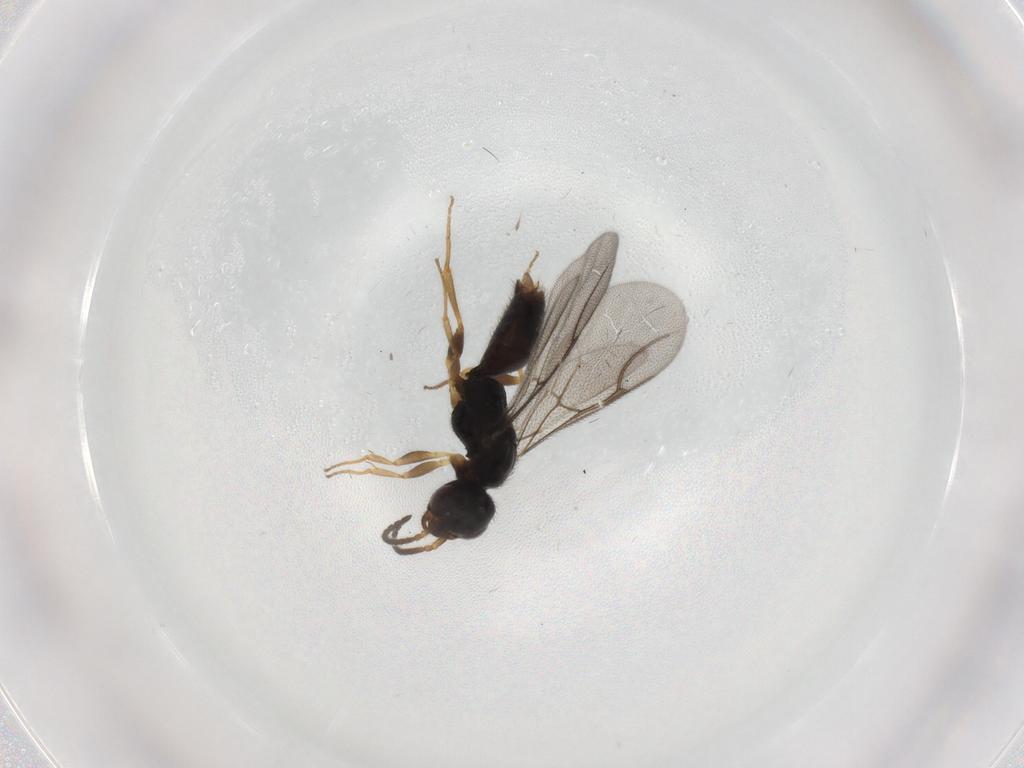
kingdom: Animalia
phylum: Arthropoda
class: Insecta
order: Hymenoptera
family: Bethylidae
